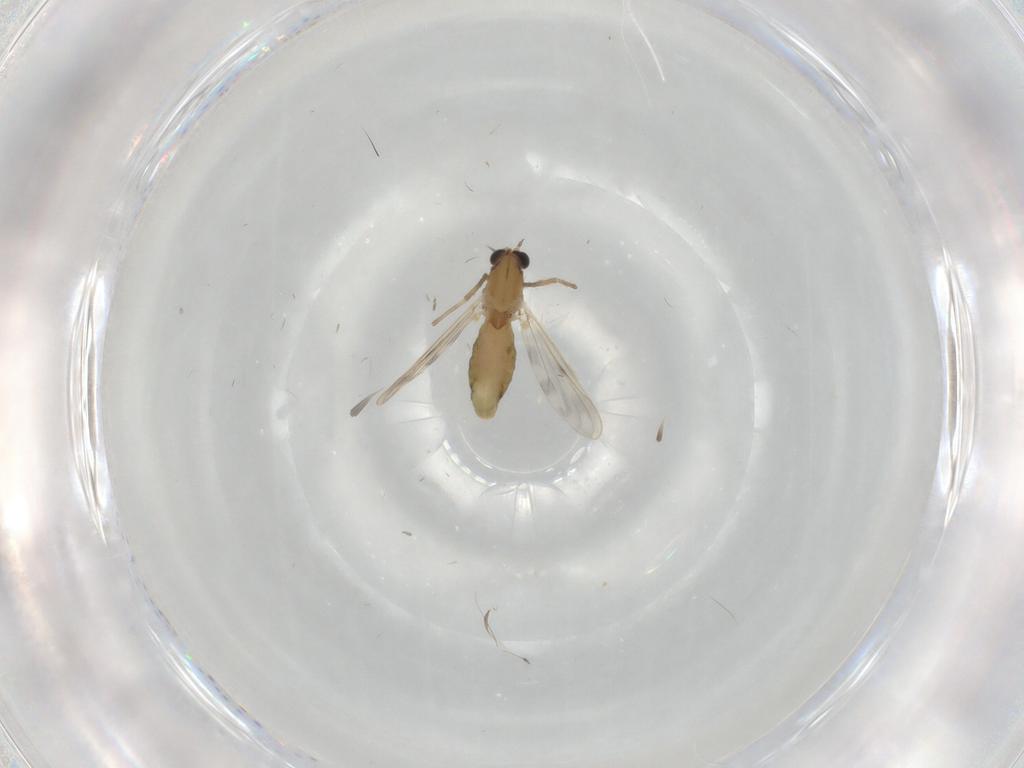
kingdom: Animalia
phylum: Arthropoda
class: Insecta
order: Diptera
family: Chironomidae
